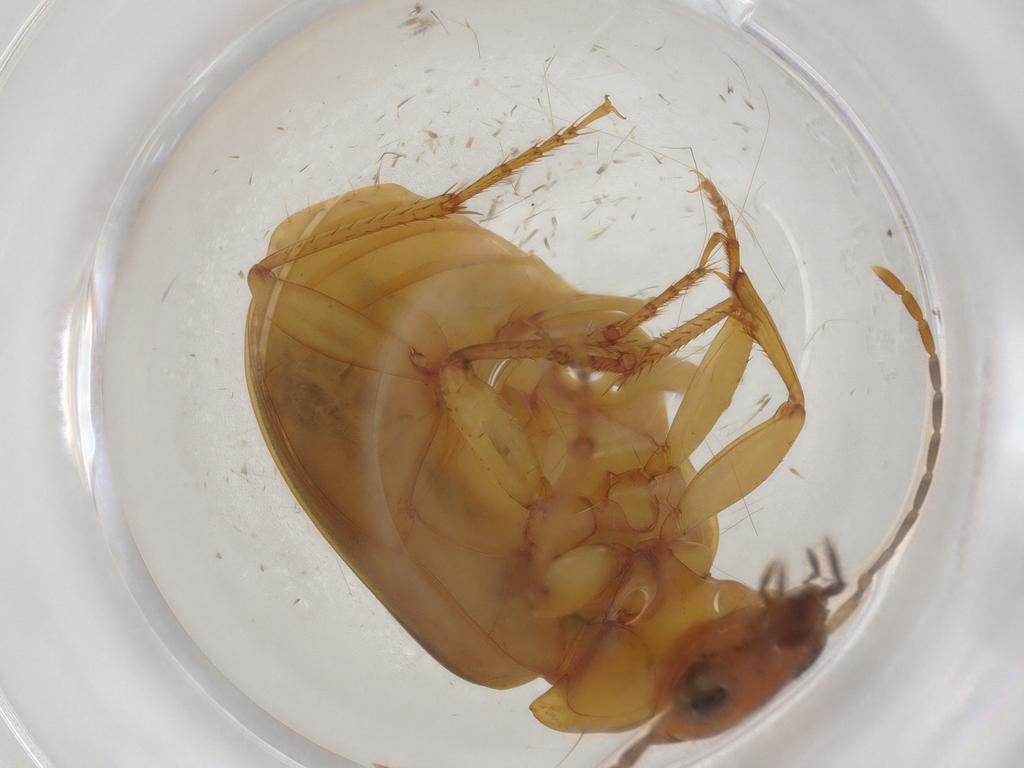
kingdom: Animalia
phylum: Arthropoda
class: Insecta
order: Coleoptera
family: Carabidae
